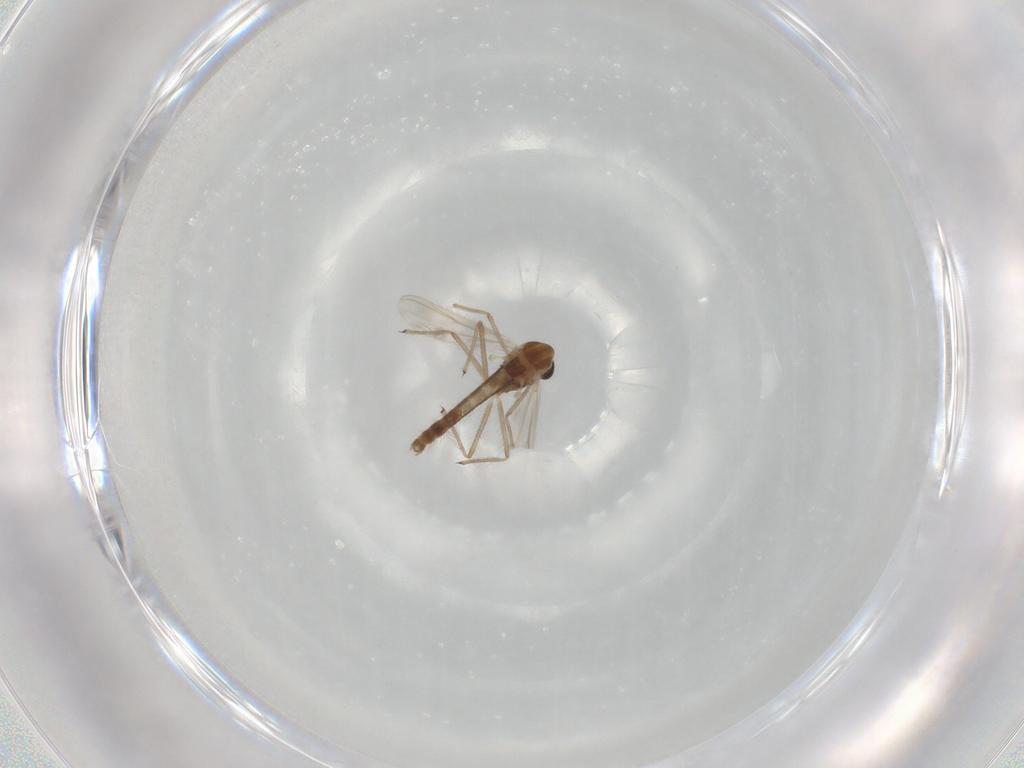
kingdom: Animalia
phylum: Arthropoda
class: Insecta
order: Diptera
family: Chironomidae
